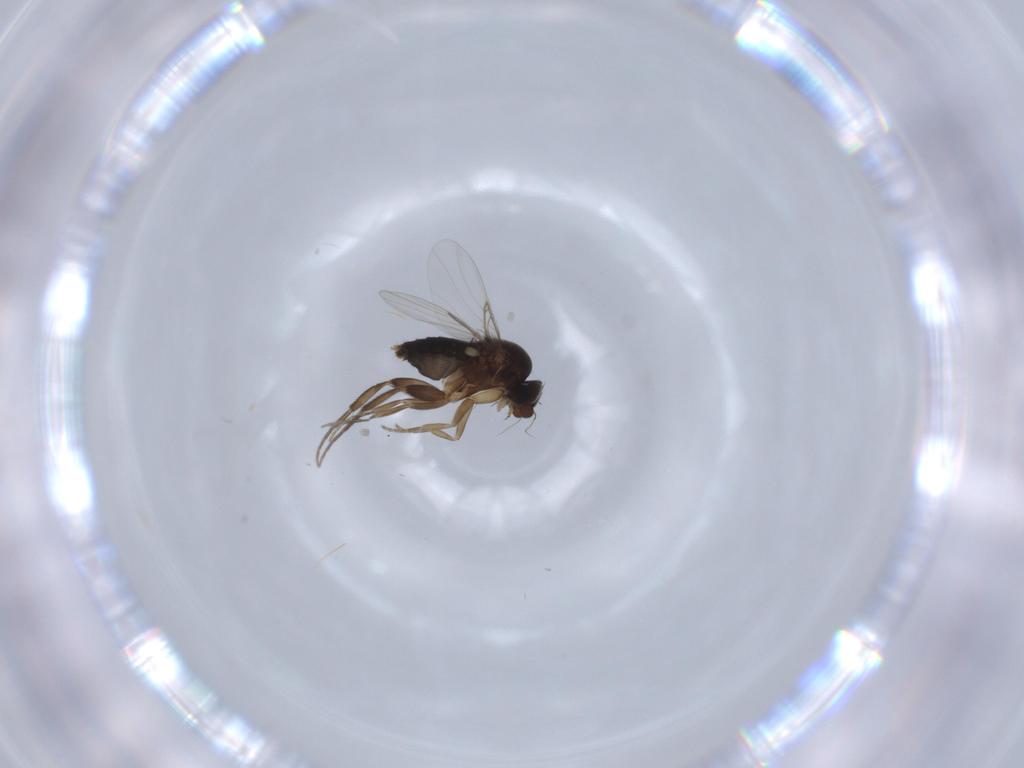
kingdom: Animalia
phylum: Arthropoda
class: Insecta
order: Diptera
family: Phoridae
